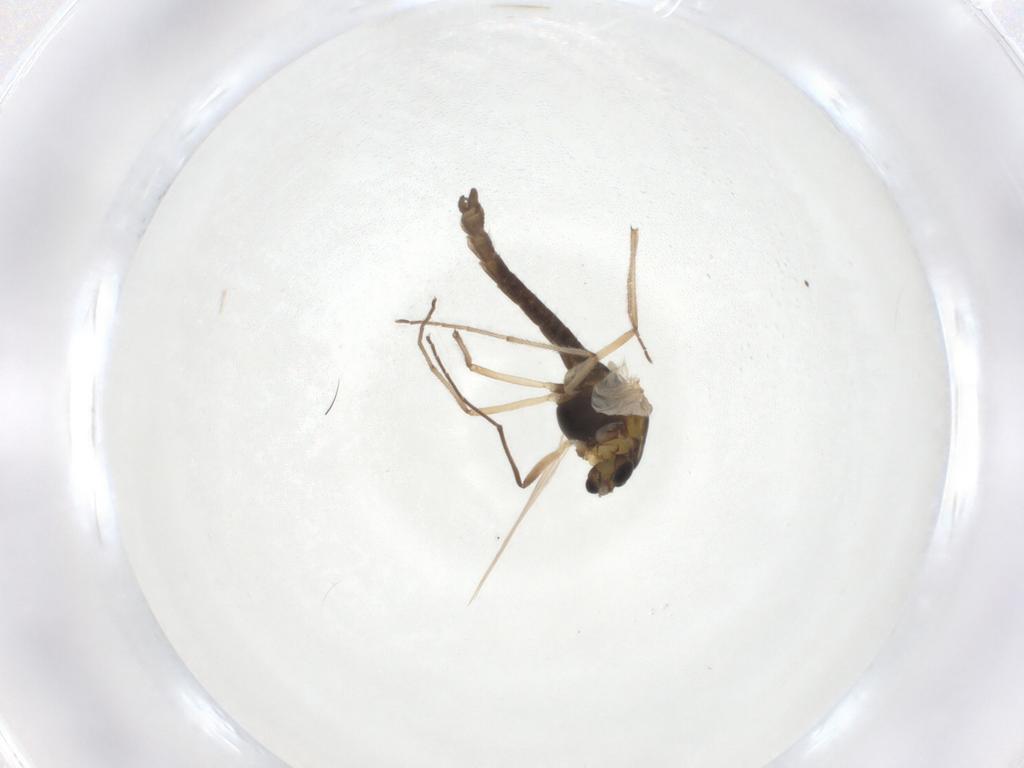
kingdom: Animalia
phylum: Arthropoda
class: Insecta
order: Diptera
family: Chironomidae
